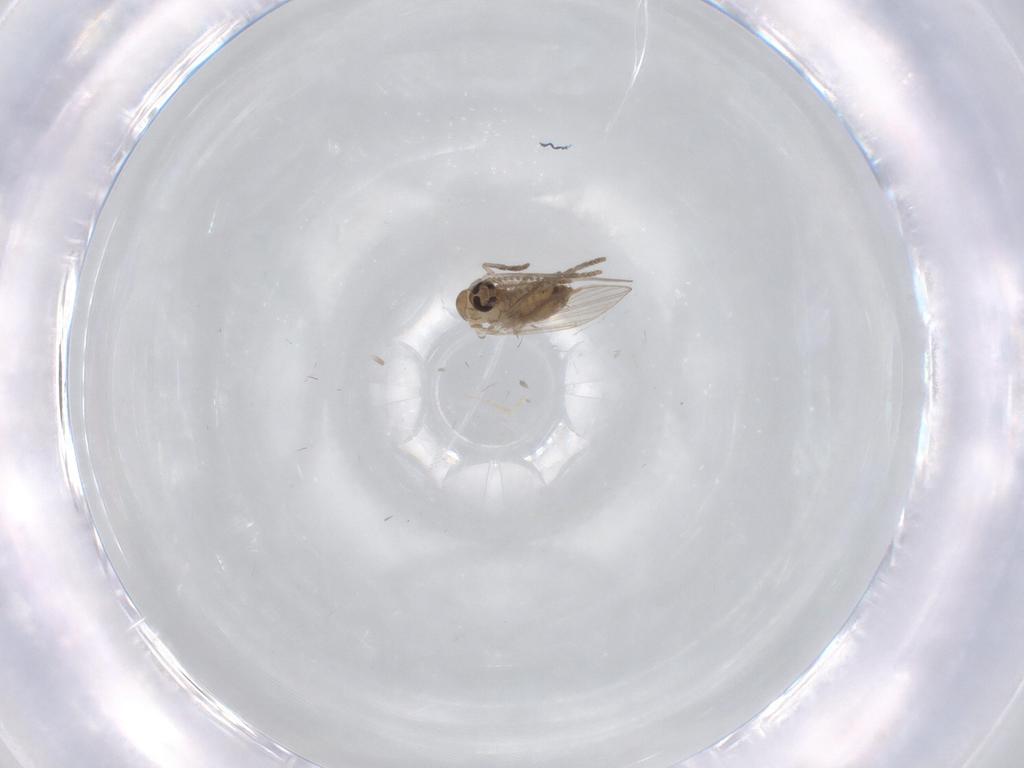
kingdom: Animalia
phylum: Arthropoda
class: Insecta
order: Diptera
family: Psychodidae
